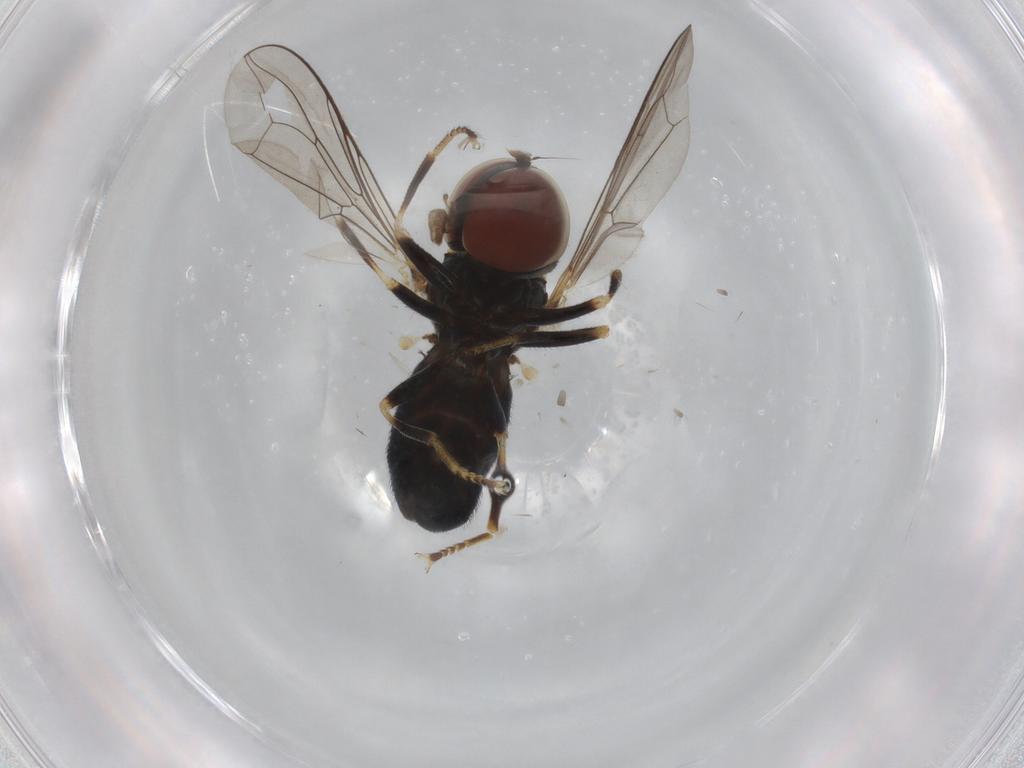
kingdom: Animalia
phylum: Arthropoda
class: Insecta
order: Diptera
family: Pipunculidae
